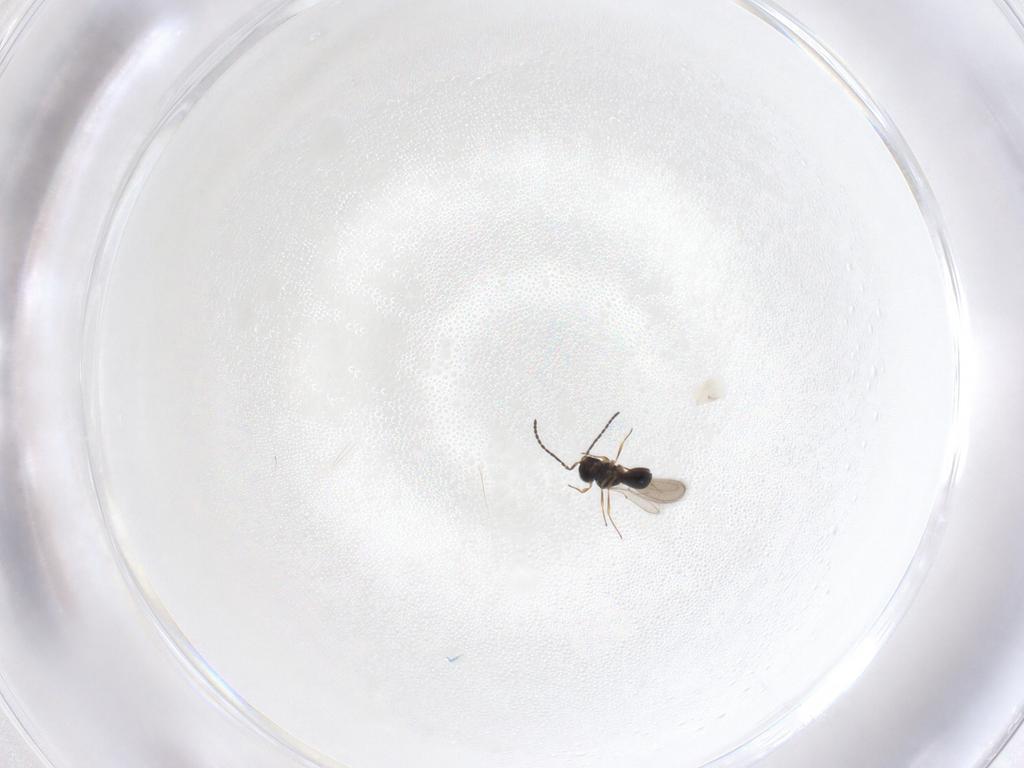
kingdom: Animalia
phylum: Arthropoda
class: Insecta
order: Hymenoptera
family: Scelionidae
